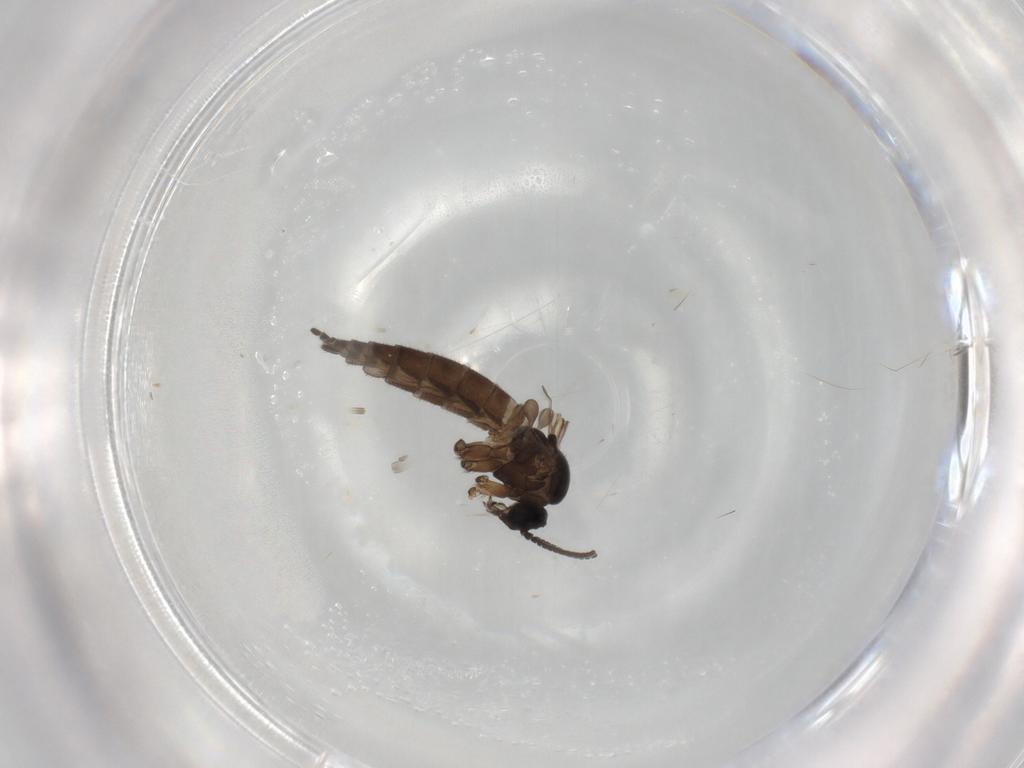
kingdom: Animalia
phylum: Arthropoda
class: Insecta
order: Diptera
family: Sciaridae
